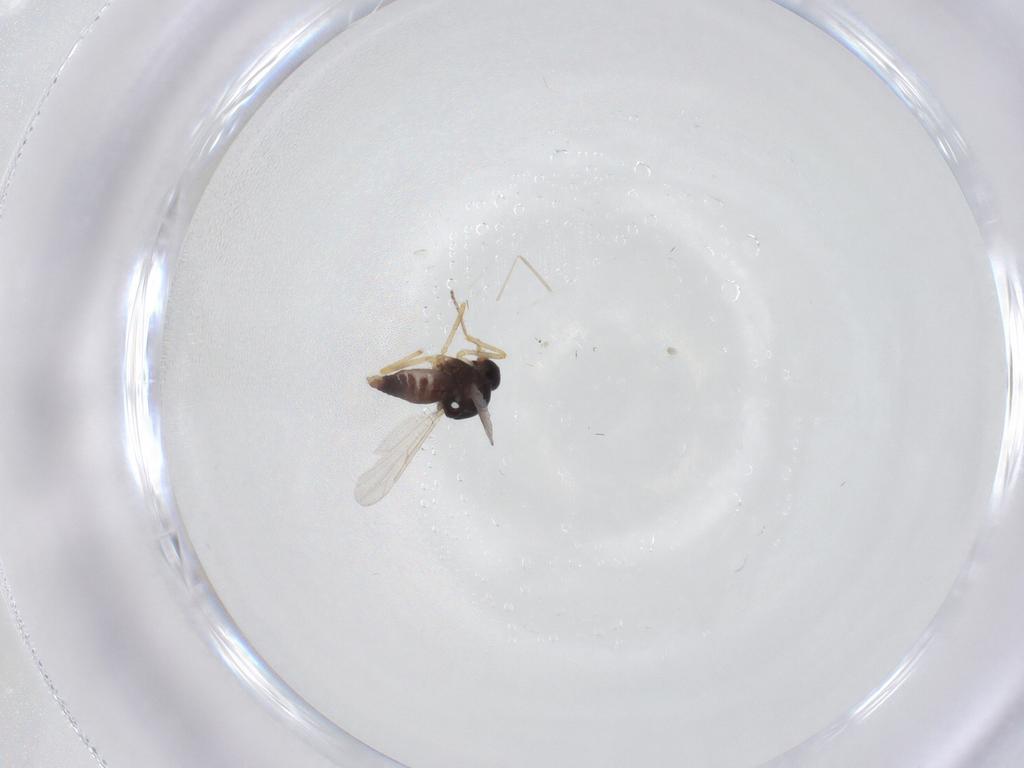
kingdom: Animalia
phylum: Arthropoda
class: Insecta
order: Diptera
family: Ceratopogonidae
